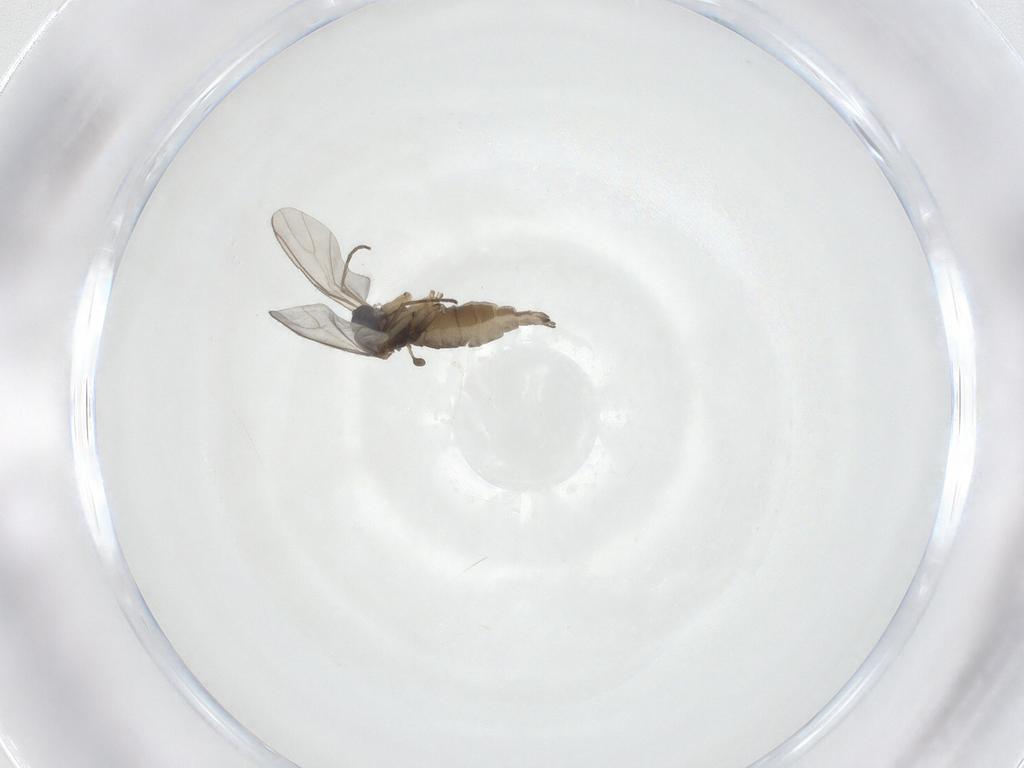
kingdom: Animalia
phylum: Arthropoda
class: Insecta
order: Diptera
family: Sciaridae
